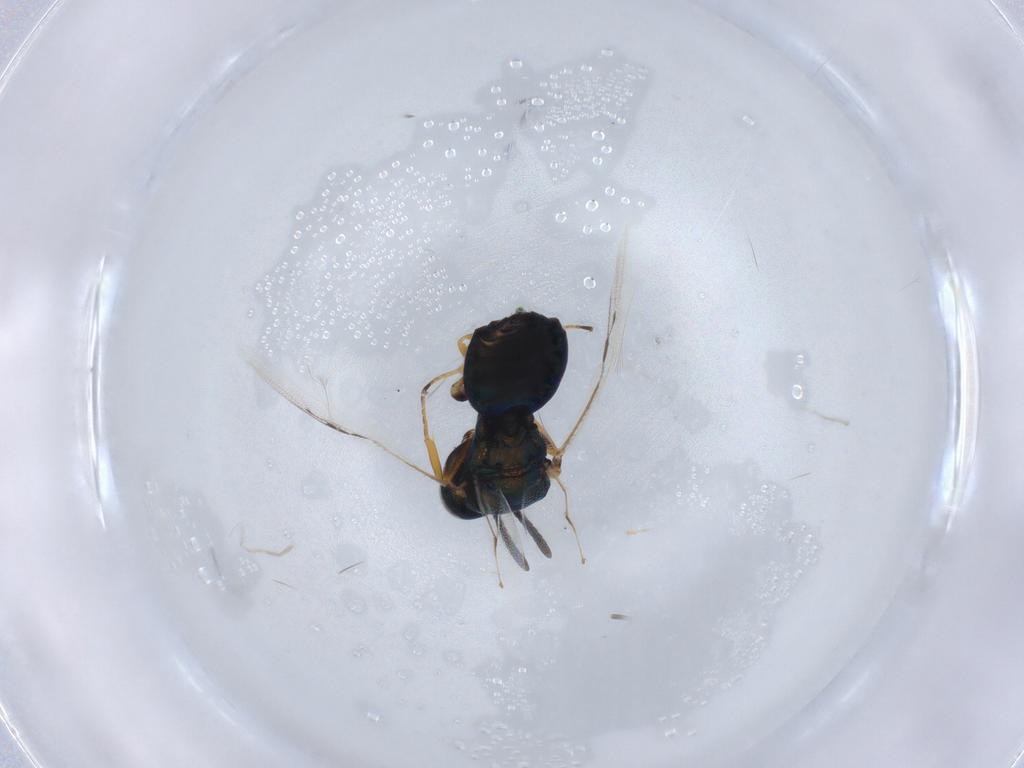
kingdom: Animalia
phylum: Arthropoda
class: Insecta
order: Hymenoptera
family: Pteromalidae
